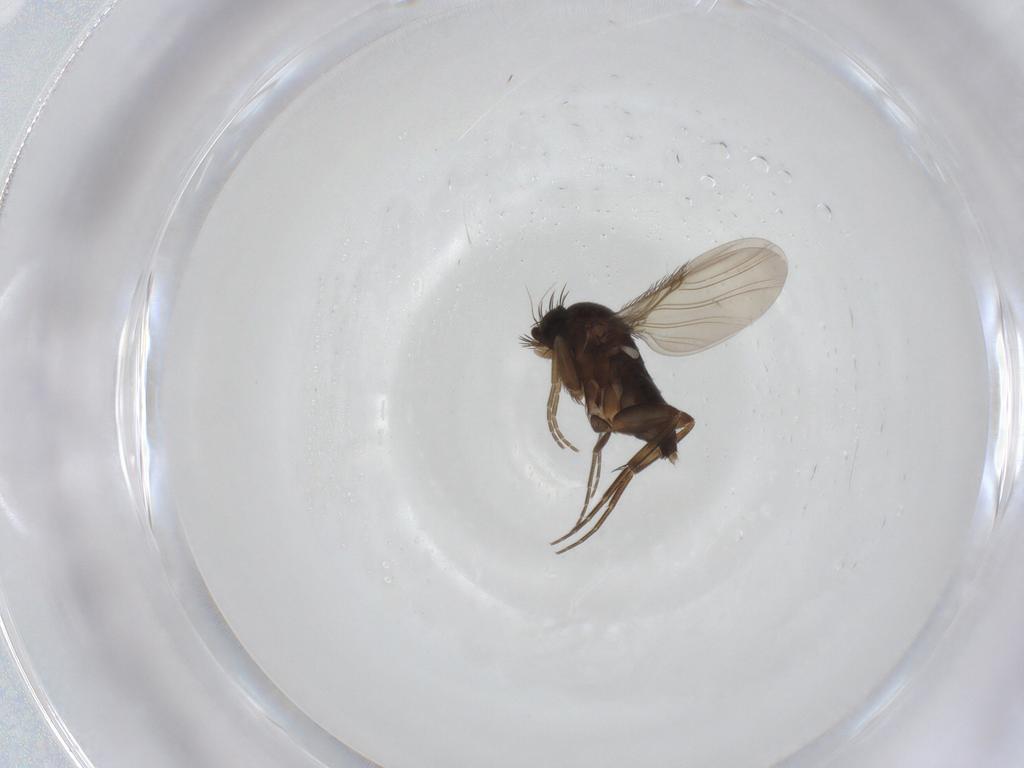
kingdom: Animalia
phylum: Arthropoda
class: Insecta
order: Diptera
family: Phoridae
